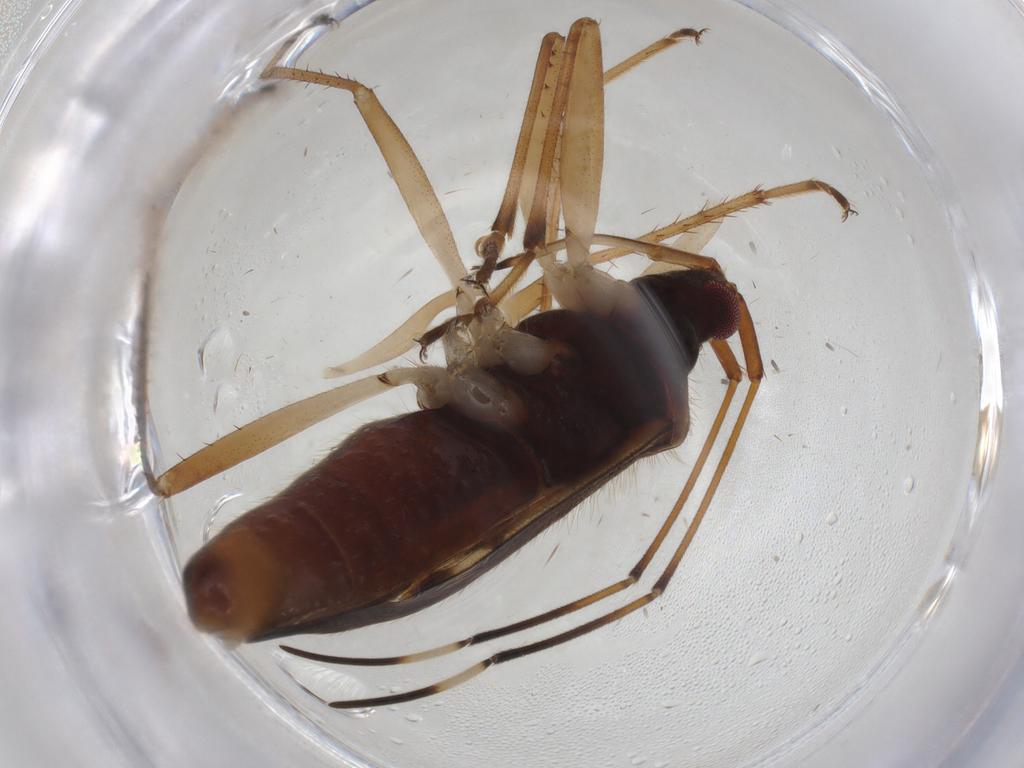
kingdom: Animalia
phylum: Arthropoda
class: Insecta
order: Hemiptera
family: Rhyparochromidae
